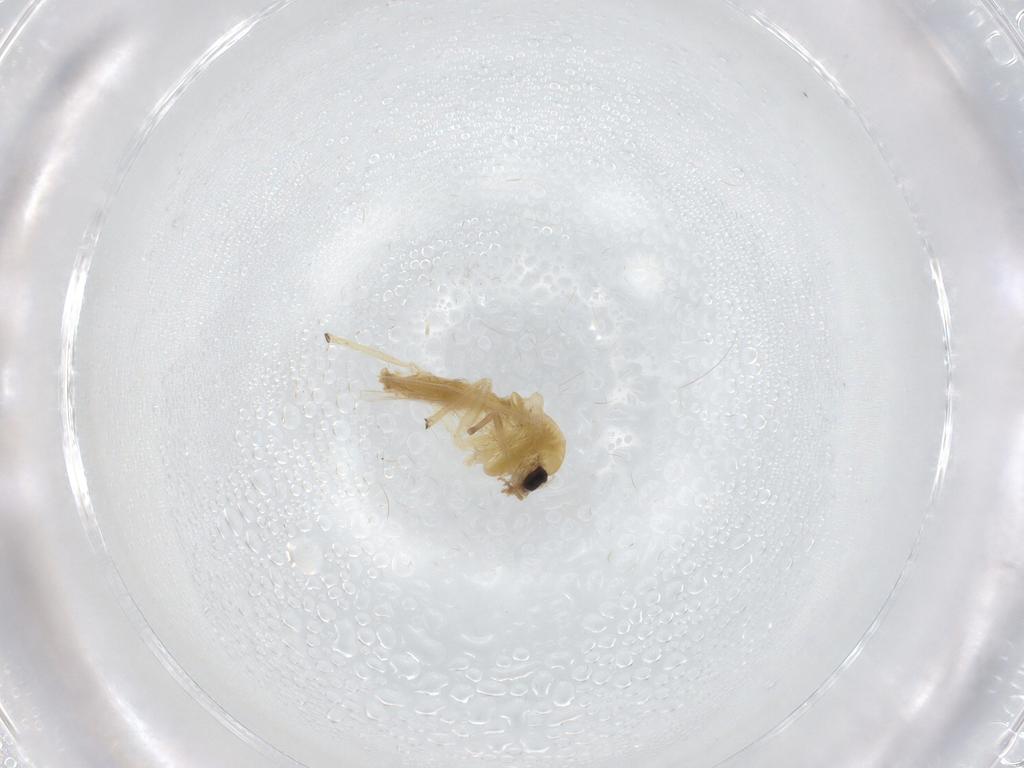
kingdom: Animalia
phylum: Arthropoda
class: Insecta
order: Diptera
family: Chironomidae
